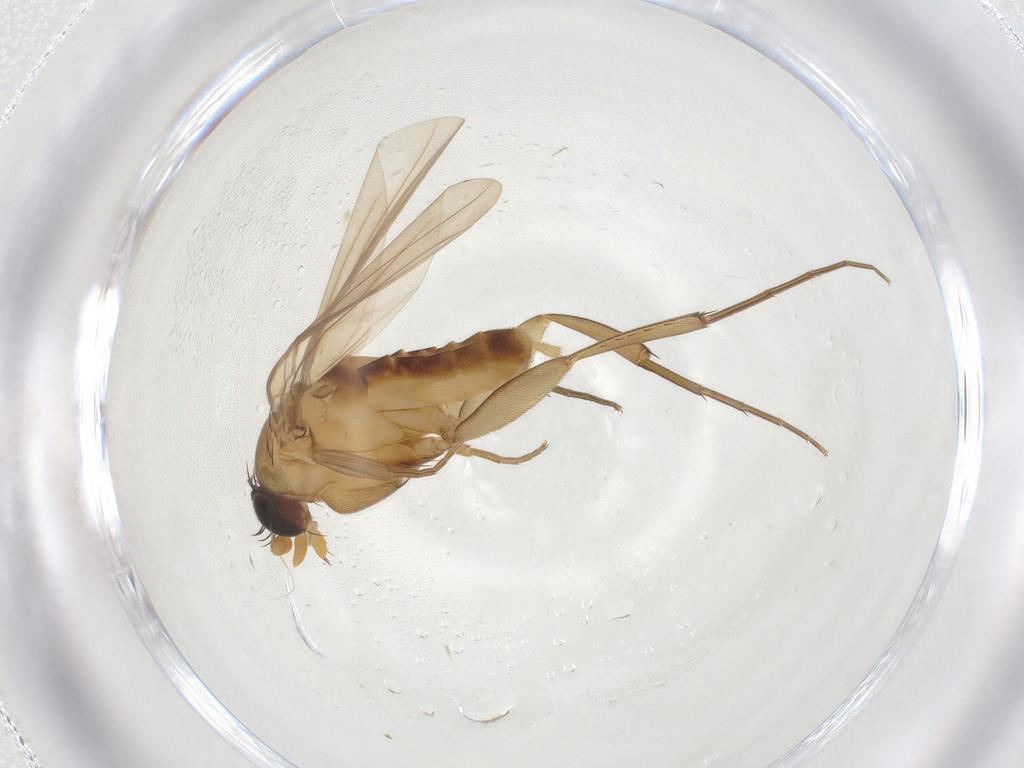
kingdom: Animalia
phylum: Arthropoda
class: Insecta
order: Diptera
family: Cecidomyiidae
